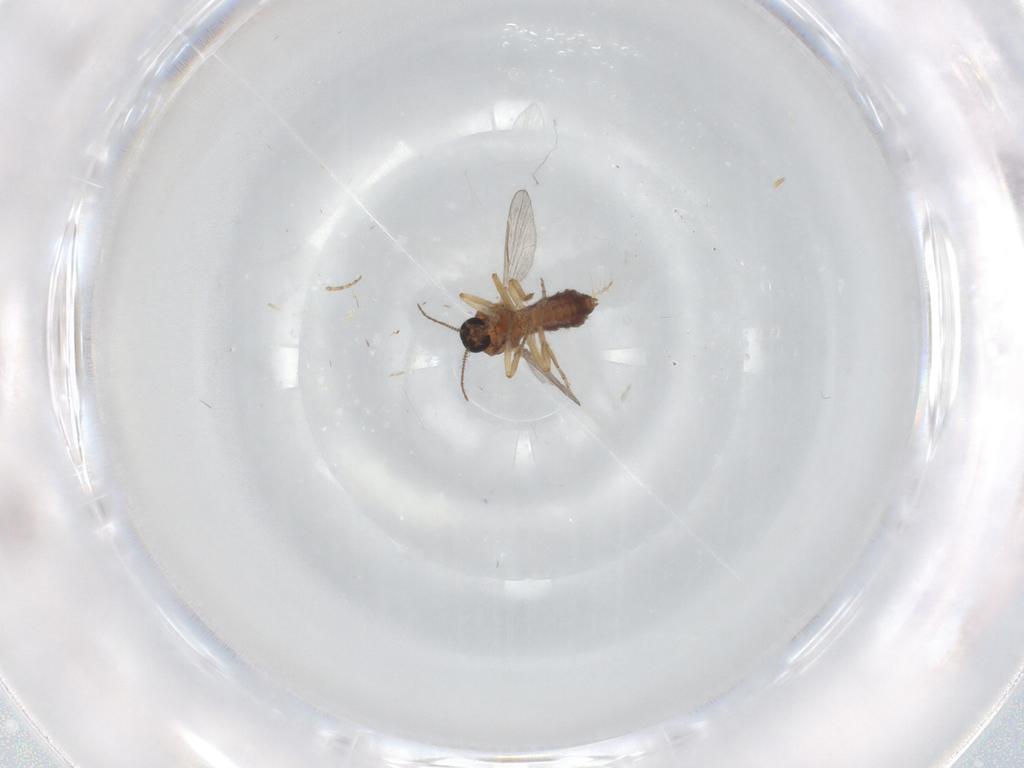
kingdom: Animalia
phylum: Arthropoda
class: Insecta
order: Diptera
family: Ceratopogonidae
